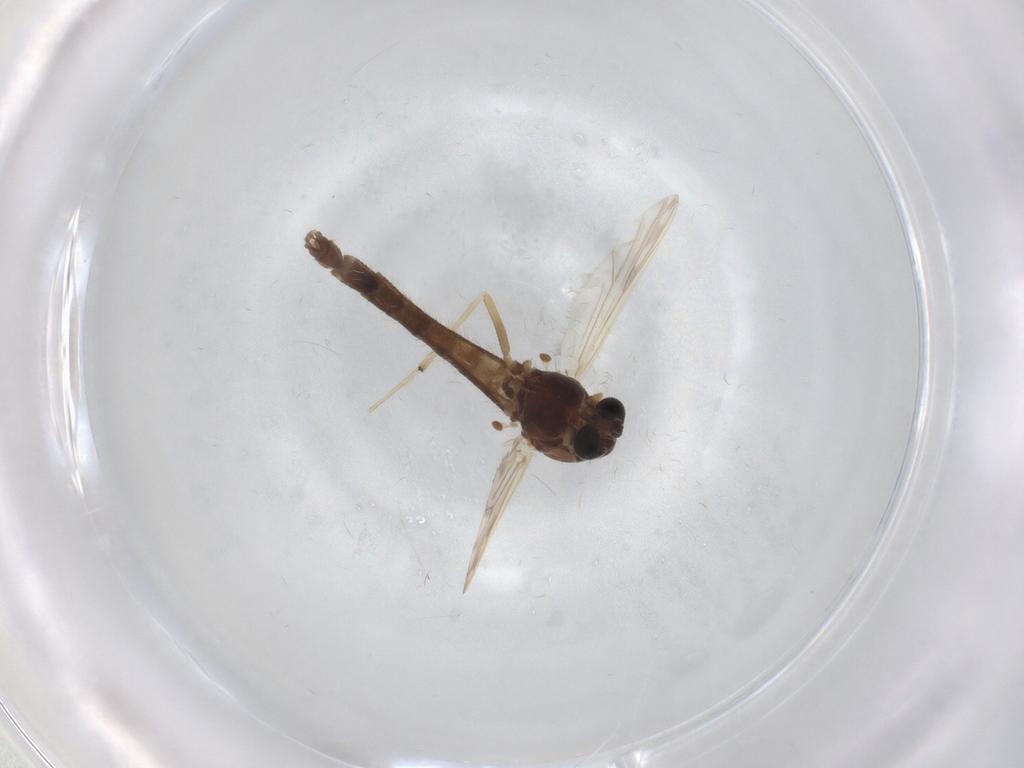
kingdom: Animalia
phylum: Arthropoda
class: Insecta
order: Diptera
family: Chironomidae
